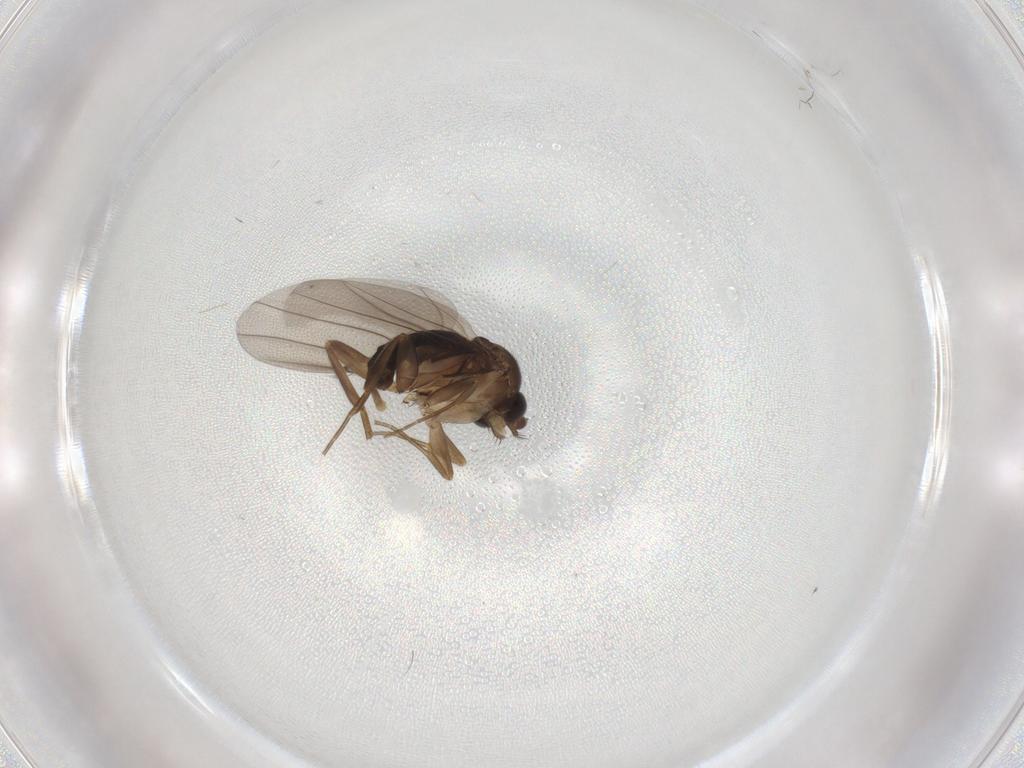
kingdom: Animalia
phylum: Arthropoda
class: Insecta
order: Diptera
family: Phoridae
